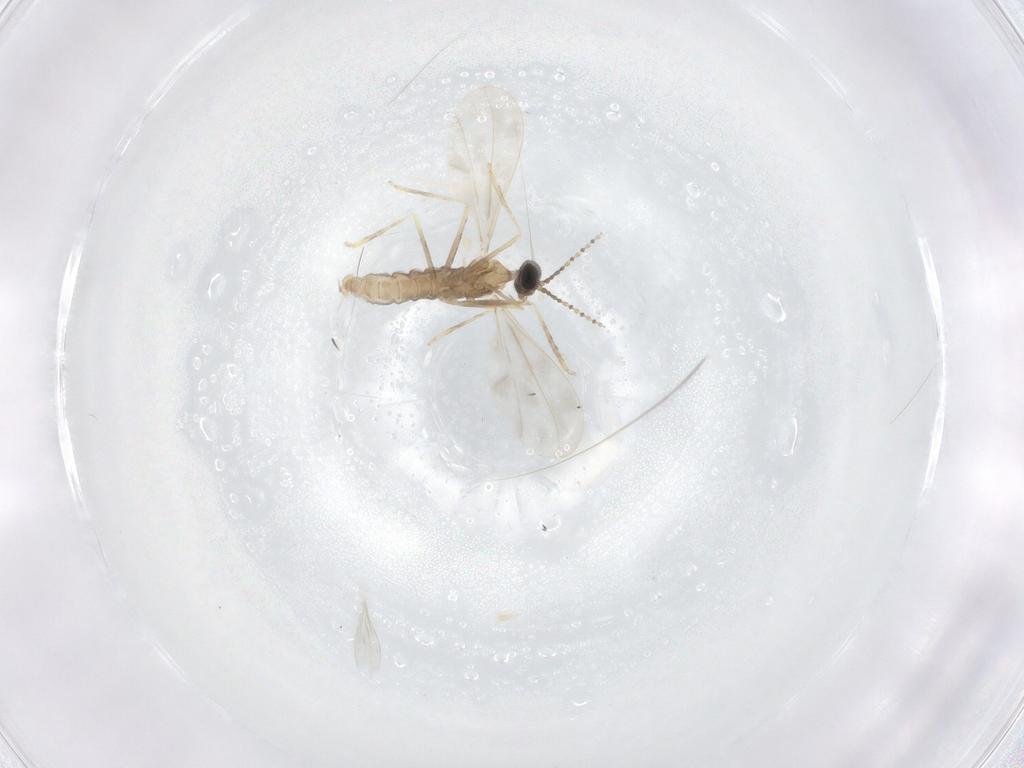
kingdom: Animalia
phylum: Arthropoda
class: Insecta
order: Diptera
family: Cecidomyiidae
